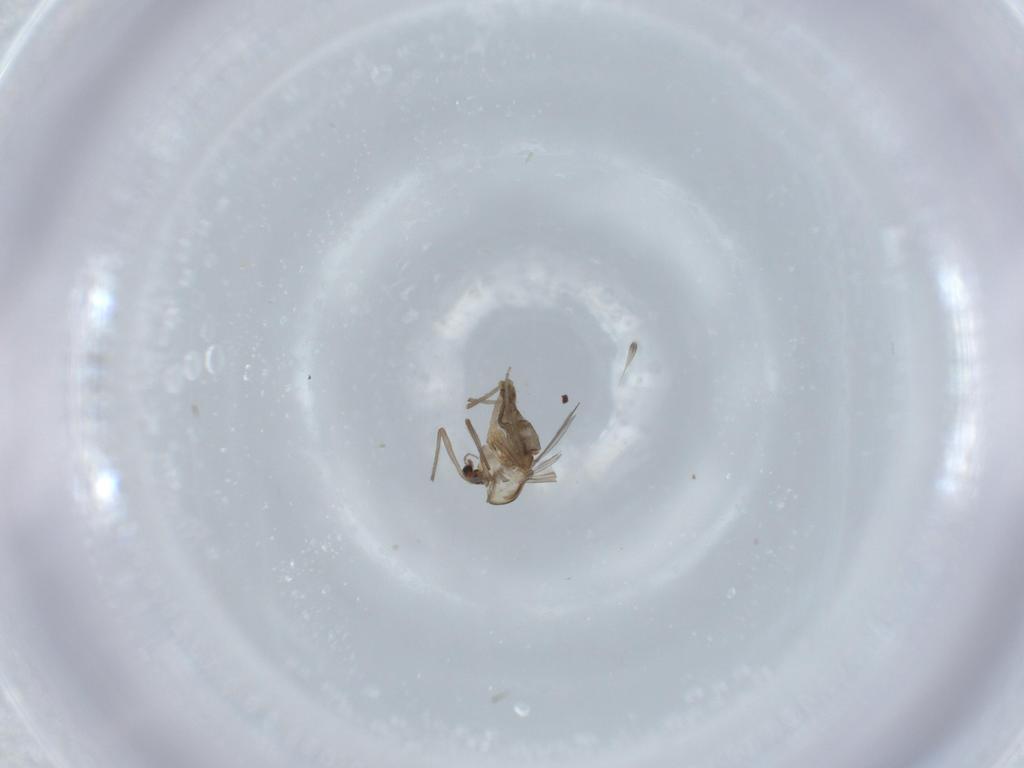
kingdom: Animalia
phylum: Arthropoda
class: Insecta
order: Diptera
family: Chironomidae
